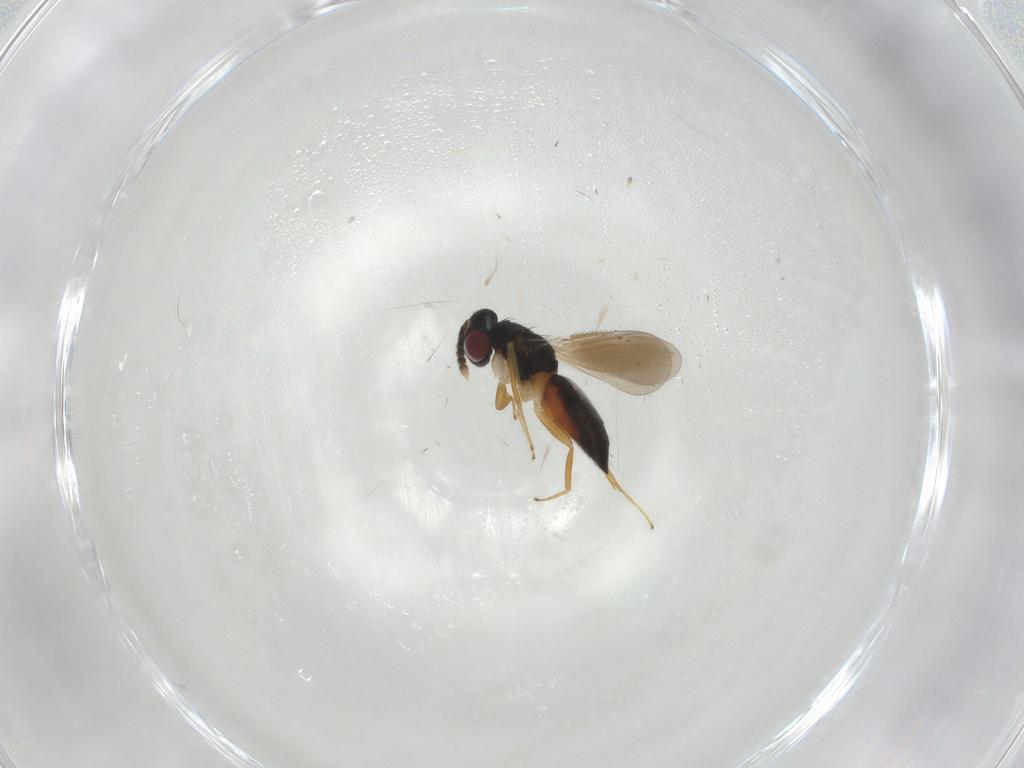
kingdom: Animalia
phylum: Arthropoda
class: Insecta
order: Hymenoptera
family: Eulophidae
